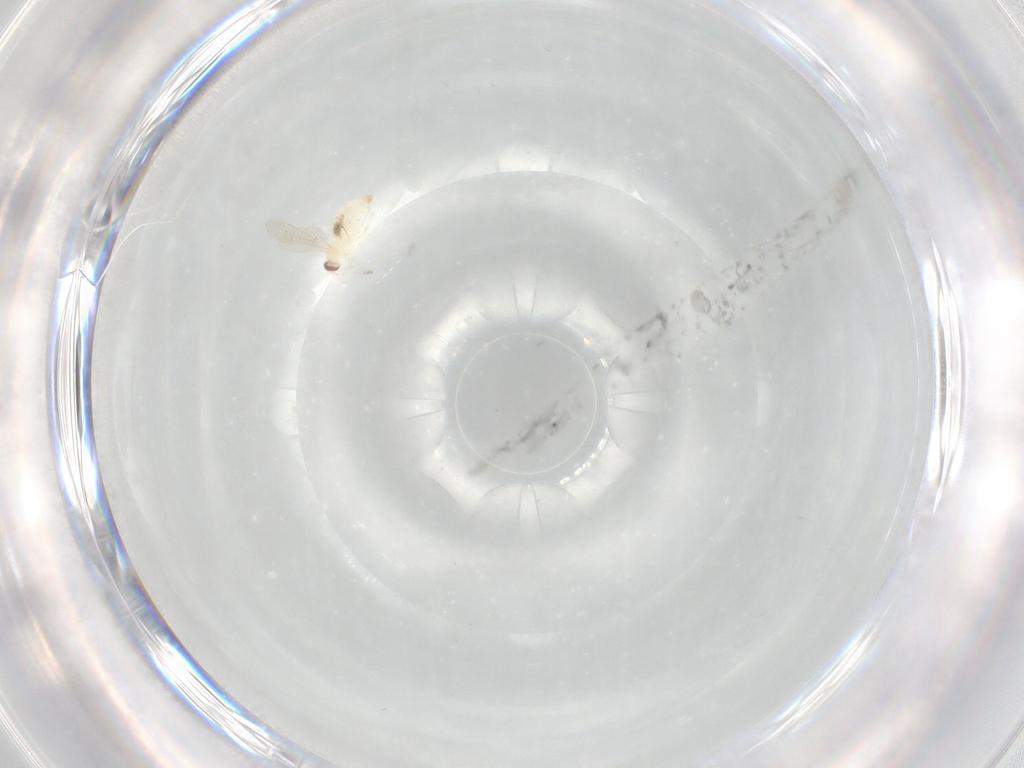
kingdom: Animalia
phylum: Arthropoda
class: Insecta
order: Diptera
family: Cecidomyiidae
